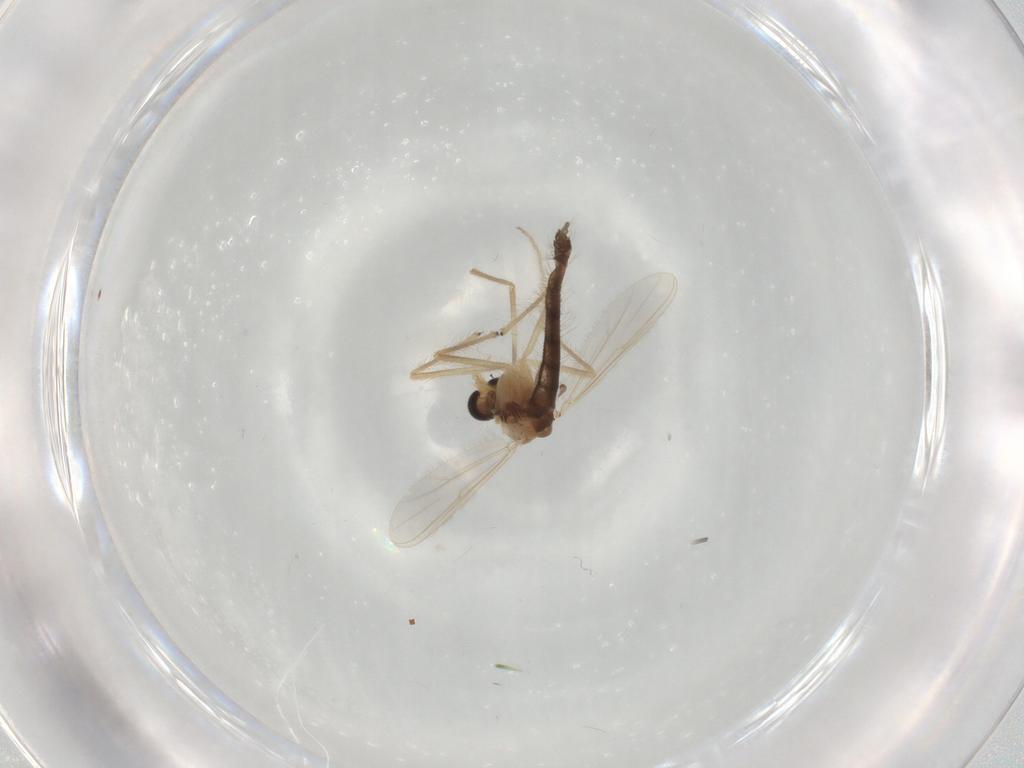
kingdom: Animalia
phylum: Arthropoda
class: Insecta
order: Diptera
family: Chironomidae
